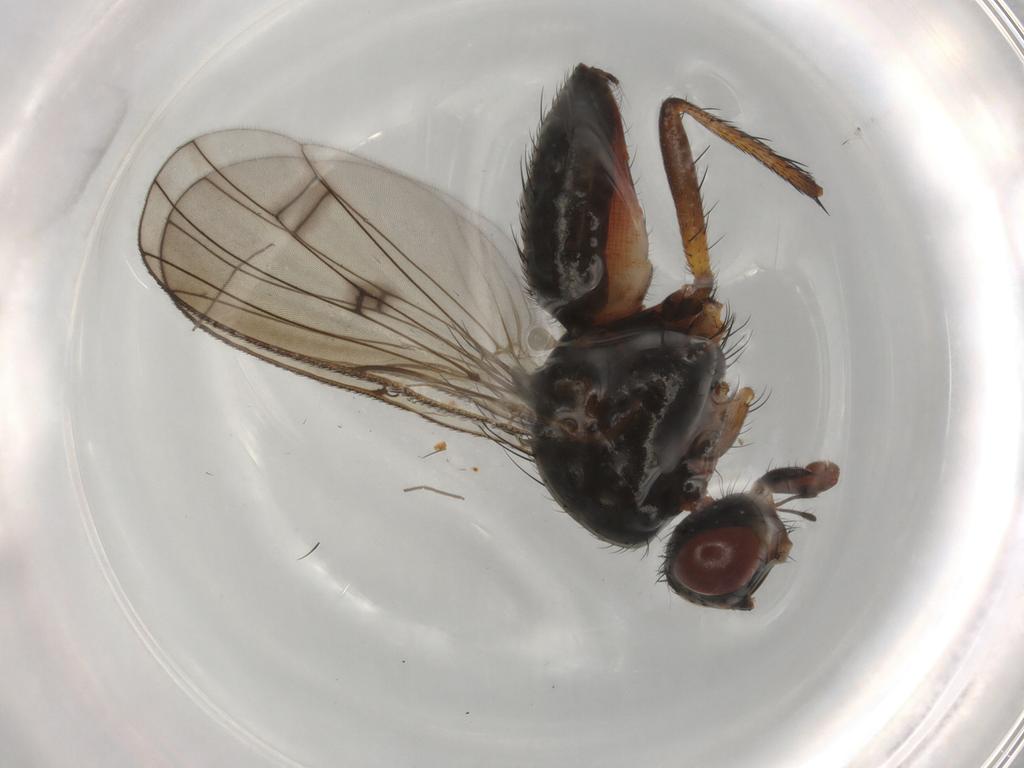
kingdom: Animalia
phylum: Arthropoda
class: Insecta
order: Diptera
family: Anthomyiidae
